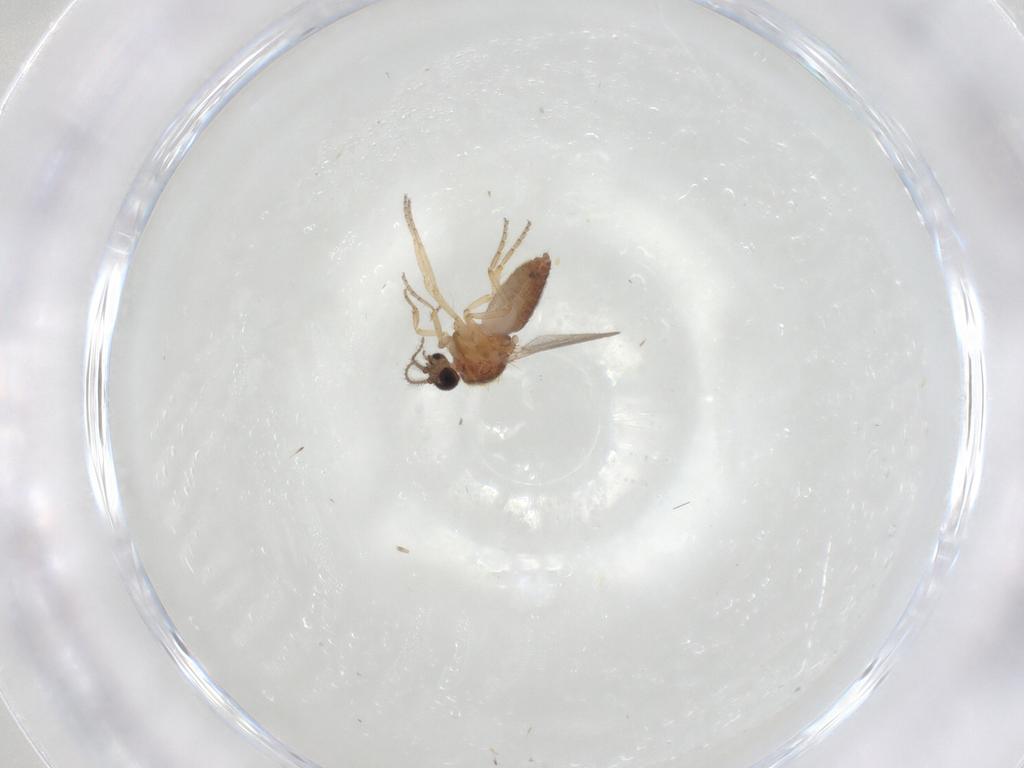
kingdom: Animalia
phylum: Arthropoda
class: Insecta
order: Diptera
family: Ceratopogonidae
